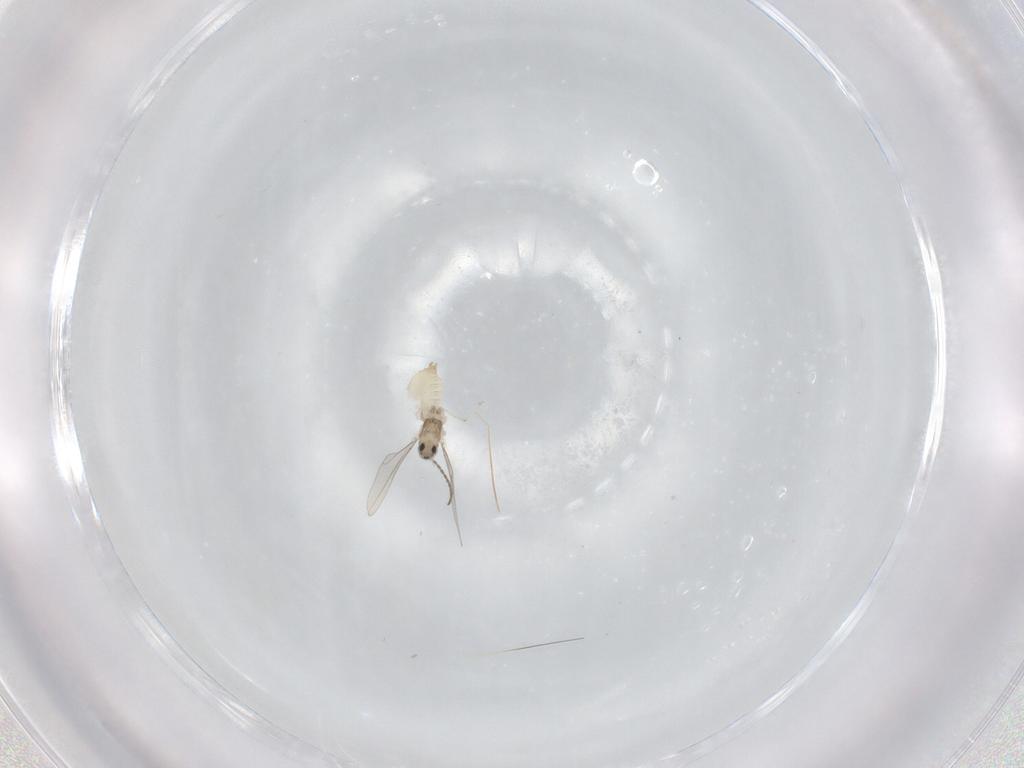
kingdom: Animalia
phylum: Arthropoda
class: Insecta
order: Diptera
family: Cecidomyiidae
